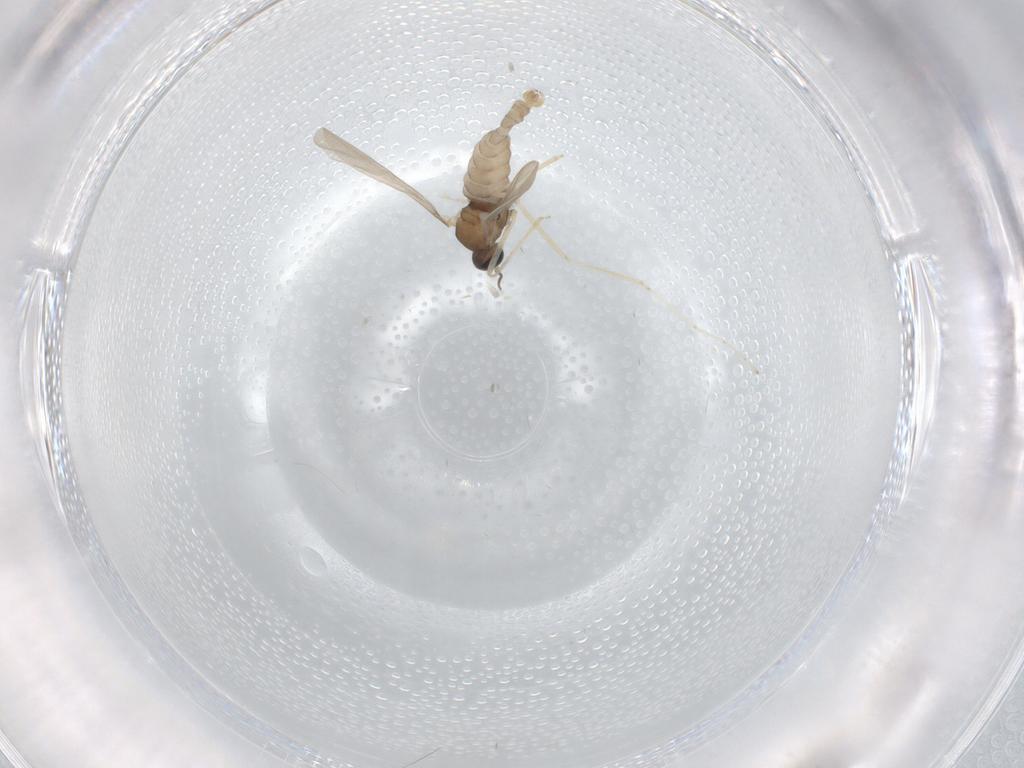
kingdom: Animalia
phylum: Arthropoda
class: Insecta
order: Diptera
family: Cecidomyiidae
